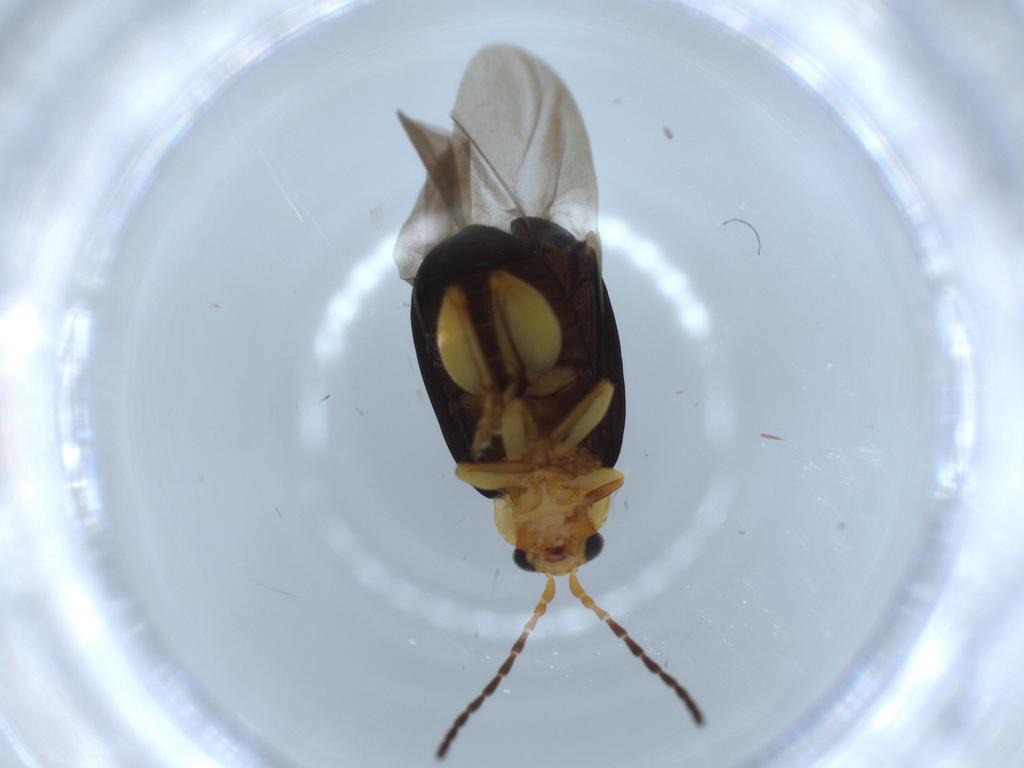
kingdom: Animalia
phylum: Arthropoda
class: Insecta
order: Coleoptera
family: Chrysomelidae
